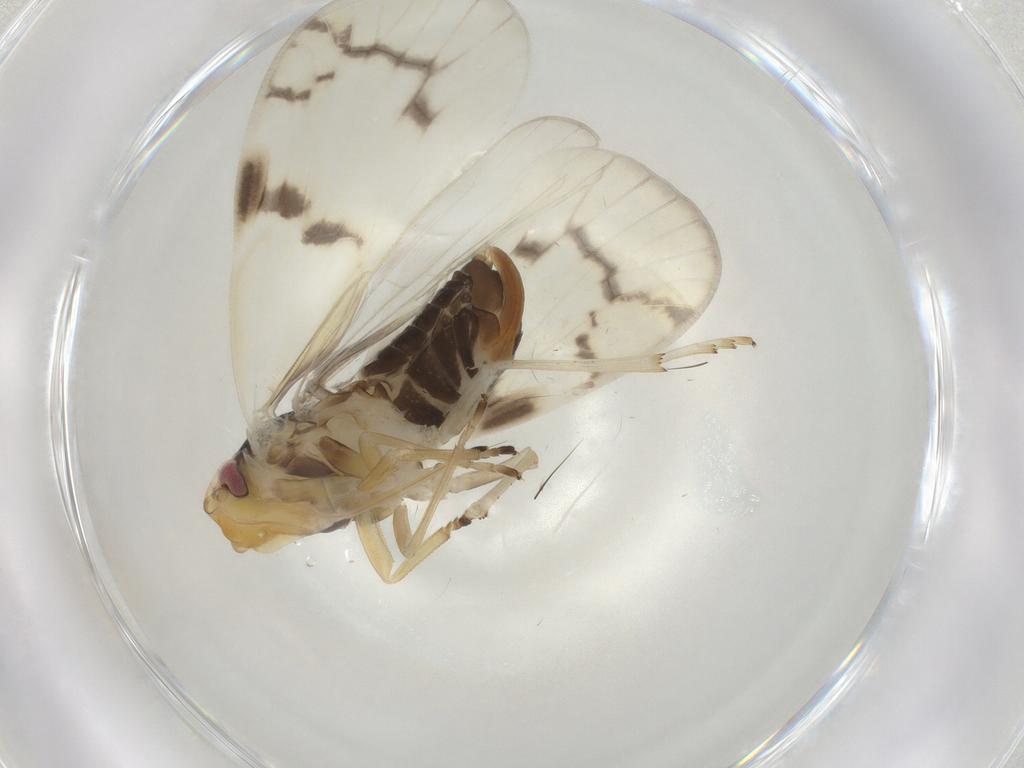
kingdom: Animalia
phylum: Arthropoda
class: Insecta
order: Hemiptera
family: Cixiidae
